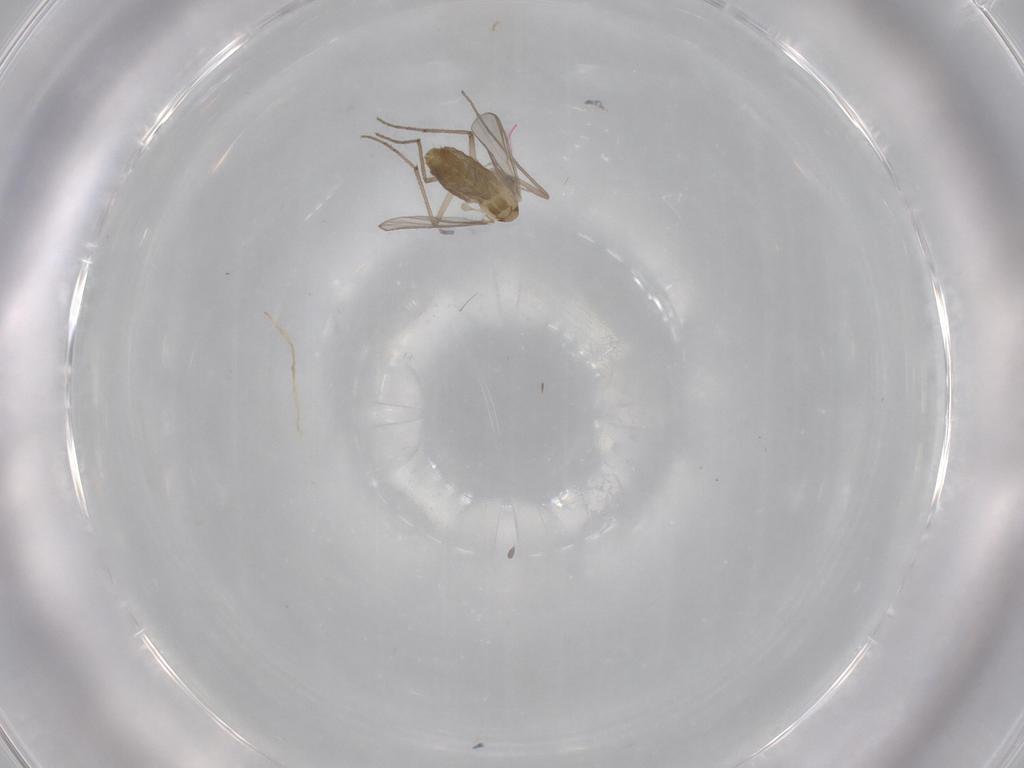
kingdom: Animalia
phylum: Arthropoda
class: Insecta
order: Diptera
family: Chironomidae
